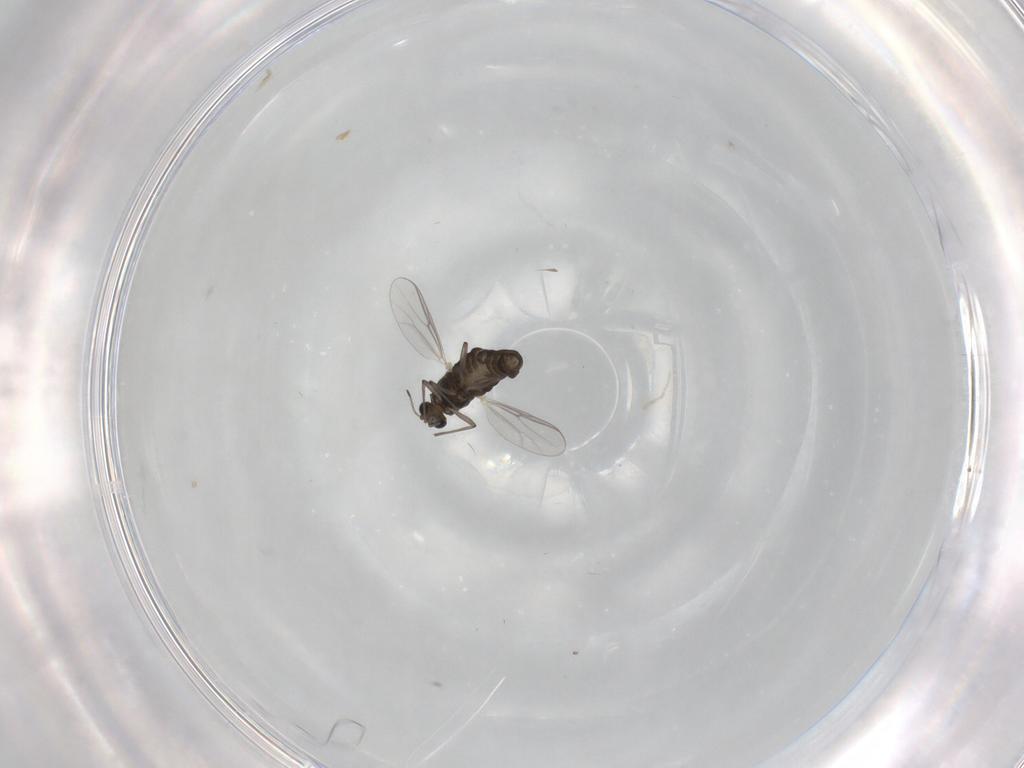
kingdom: Animalia
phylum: Arthropoda
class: Insecta
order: Diptera
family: Chironomidae
